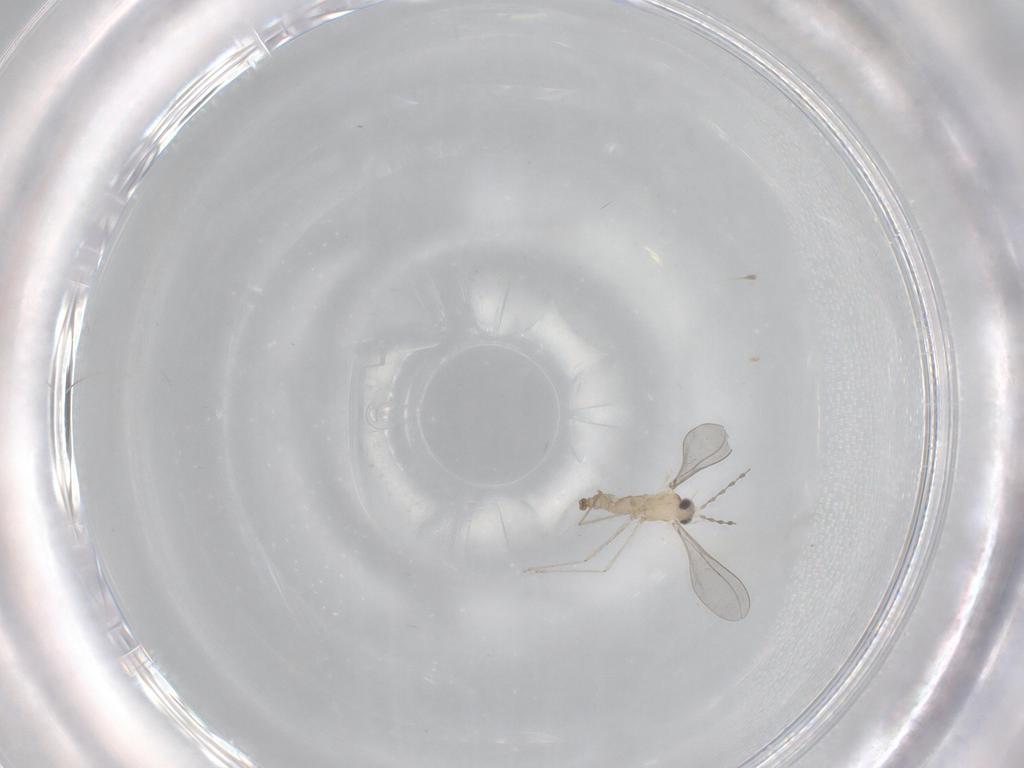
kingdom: Animalia
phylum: Arthropoda
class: Insecta
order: Diptera
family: Cecidomyiidae
